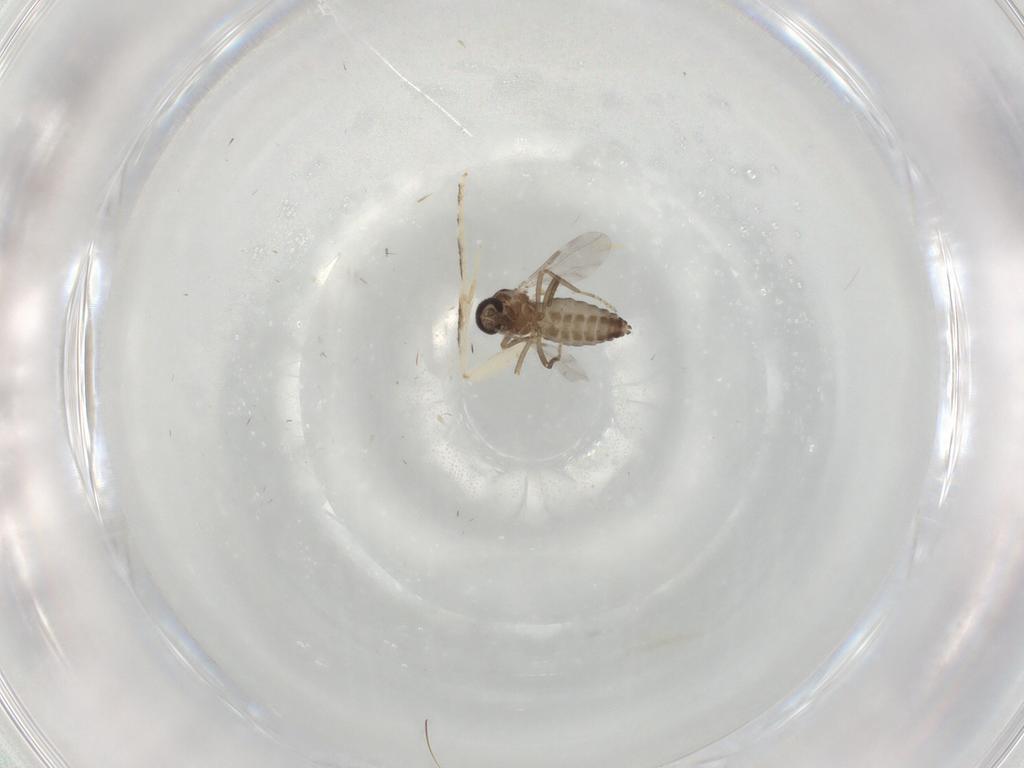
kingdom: Animalia
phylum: Arthropoda
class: Insecta
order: Diptera
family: Ceratopogonidae
